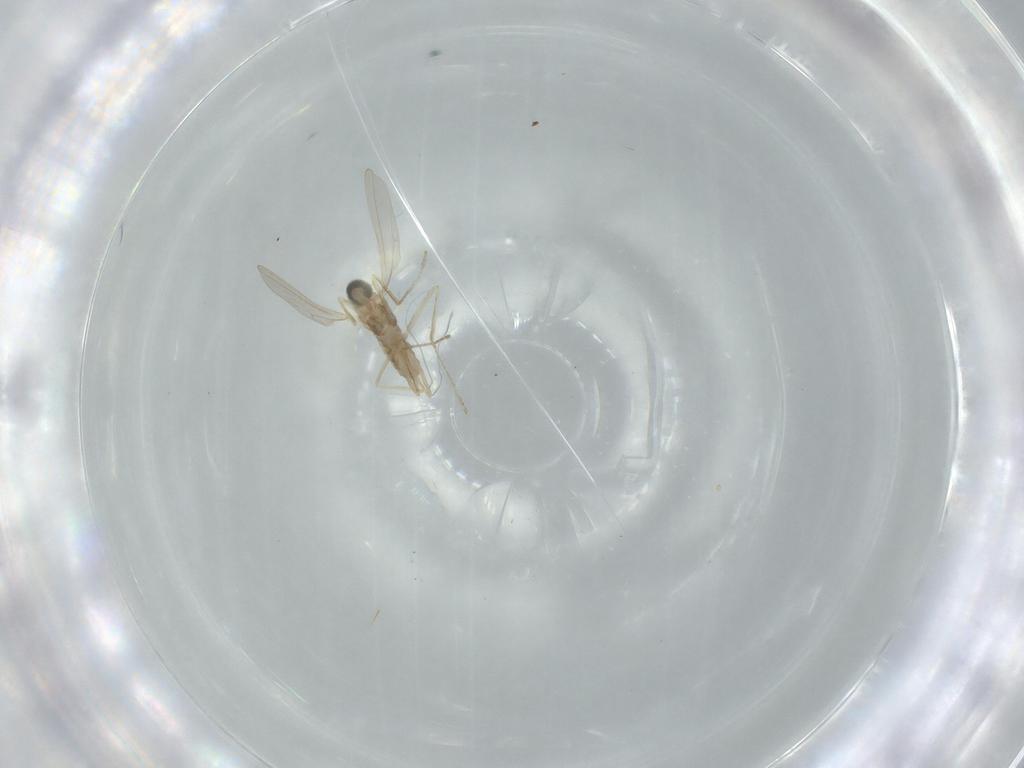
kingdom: Animalia
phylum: Arthropoda
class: Insecta
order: Diptera
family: Cecidomyiidae
